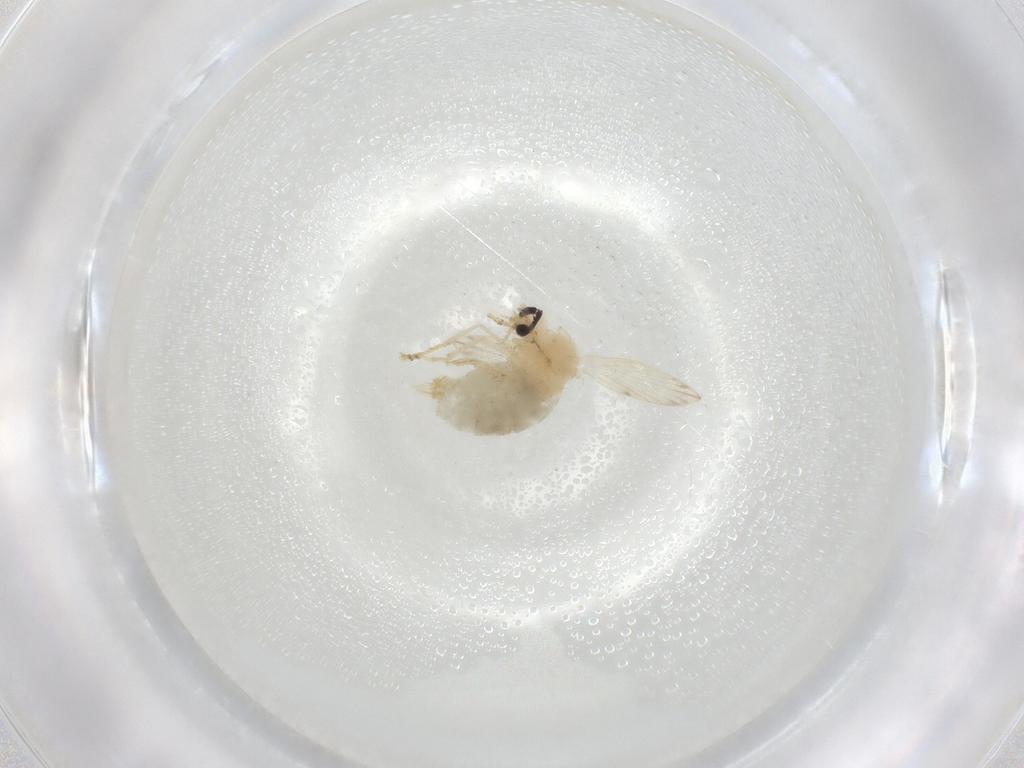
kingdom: Animalia
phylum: Arthropoda
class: Insecta
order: Diptera
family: Psychodidae
